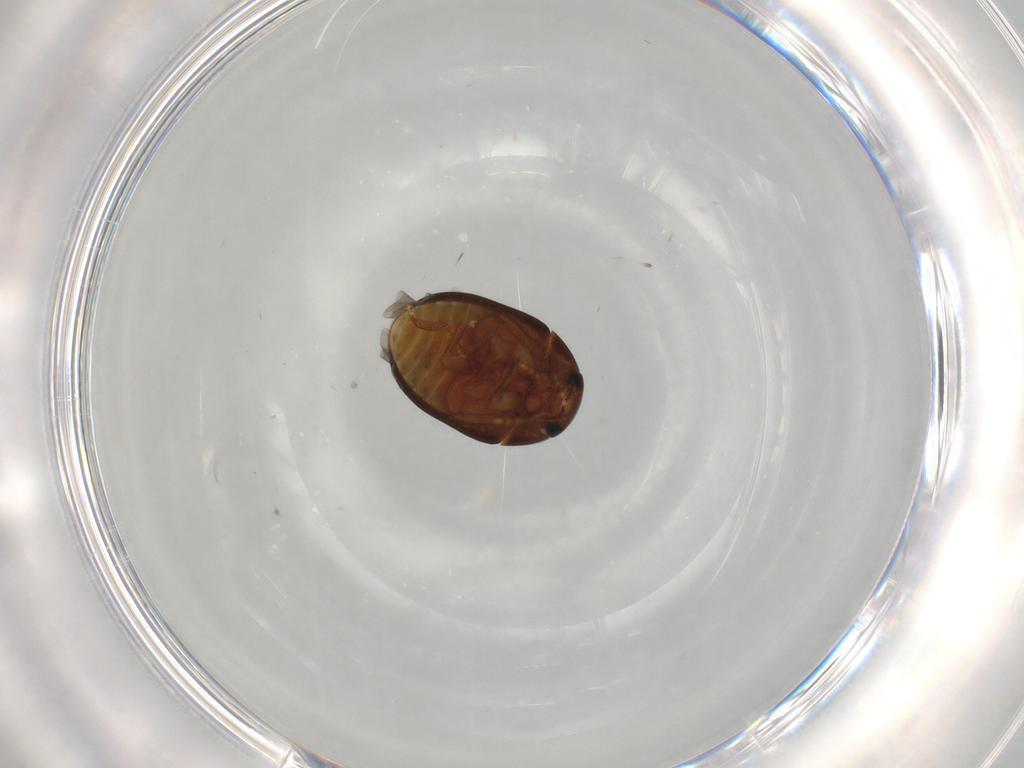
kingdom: Animalia
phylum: Arthropoda
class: Insecta
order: Coleoptera
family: Phalacridae
